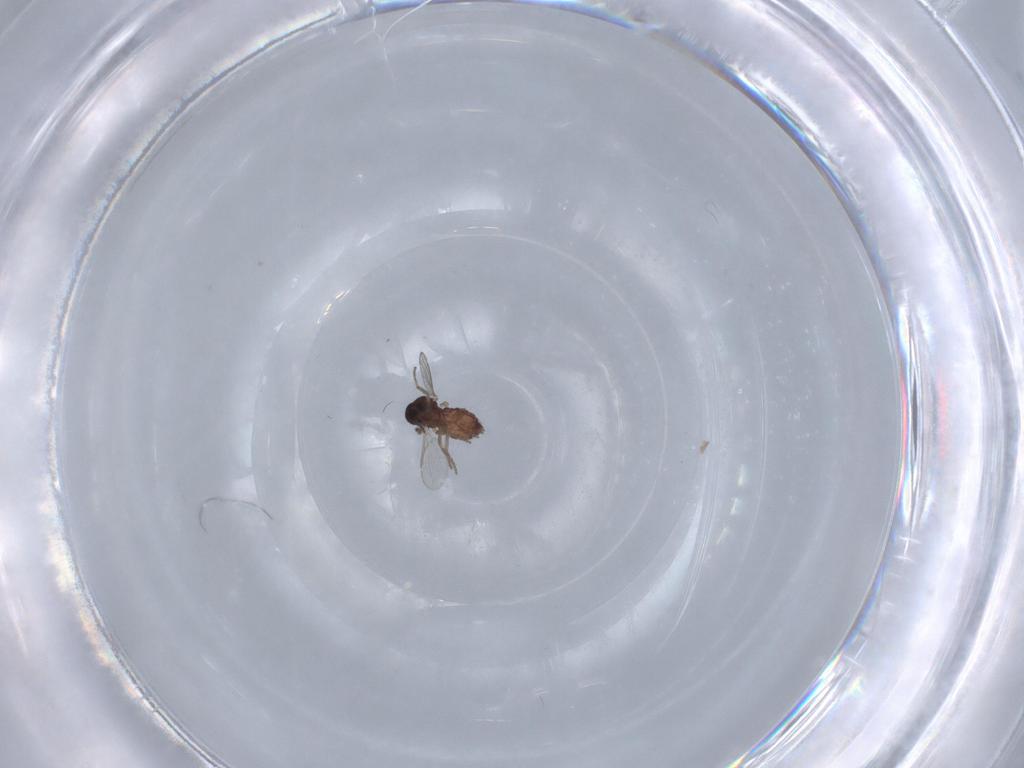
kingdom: Animalia
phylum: Arthropoda
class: Insecta
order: Diptera
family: Ceratopogonidae
